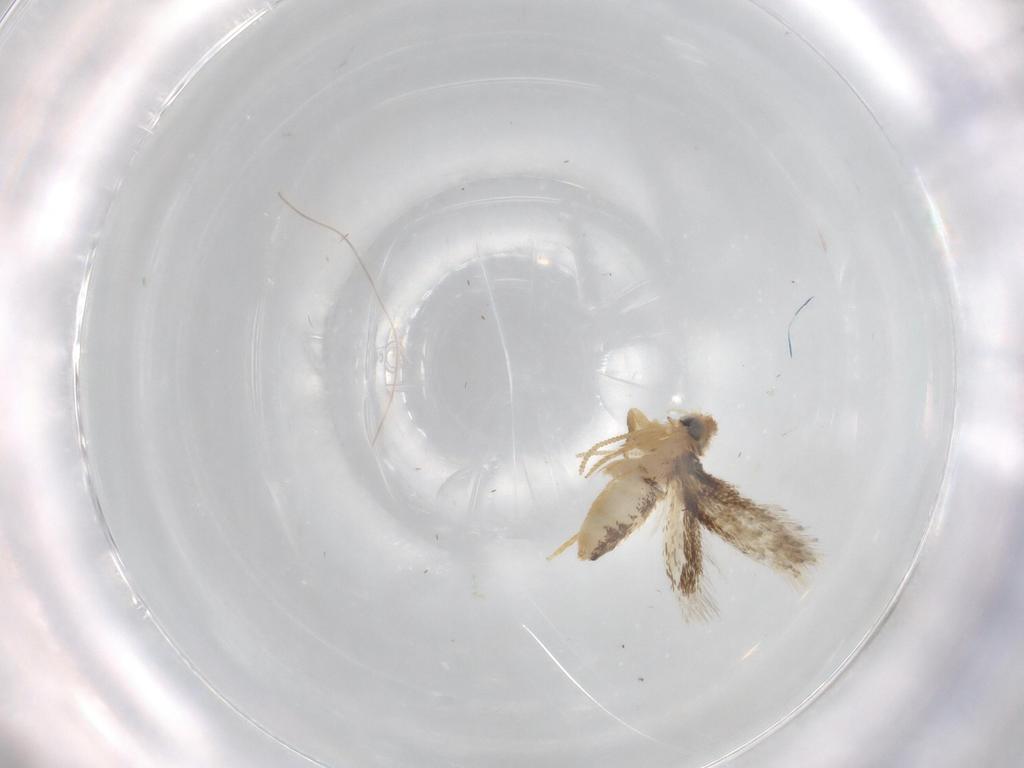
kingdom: Animalia
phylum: Arthropoda
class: Insecta
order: Lepidoptera
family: Nepticulidae
